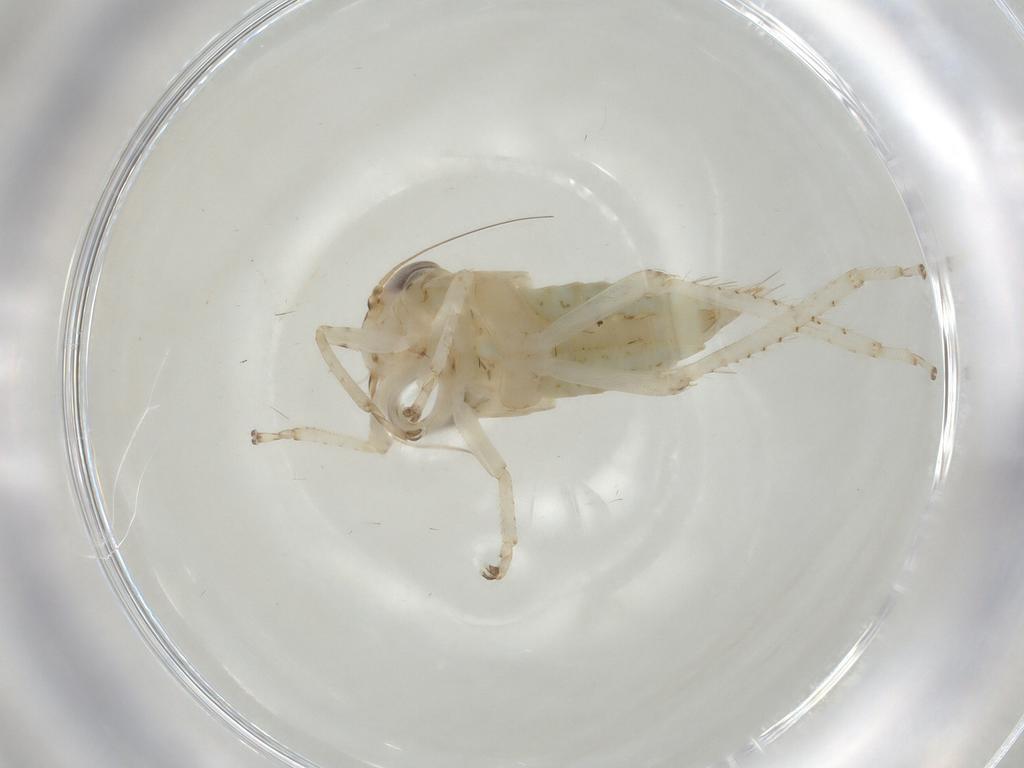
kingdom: Animalia
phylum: Arthropoda
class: Insecta
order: Hemiptera
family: Cicadellidae
